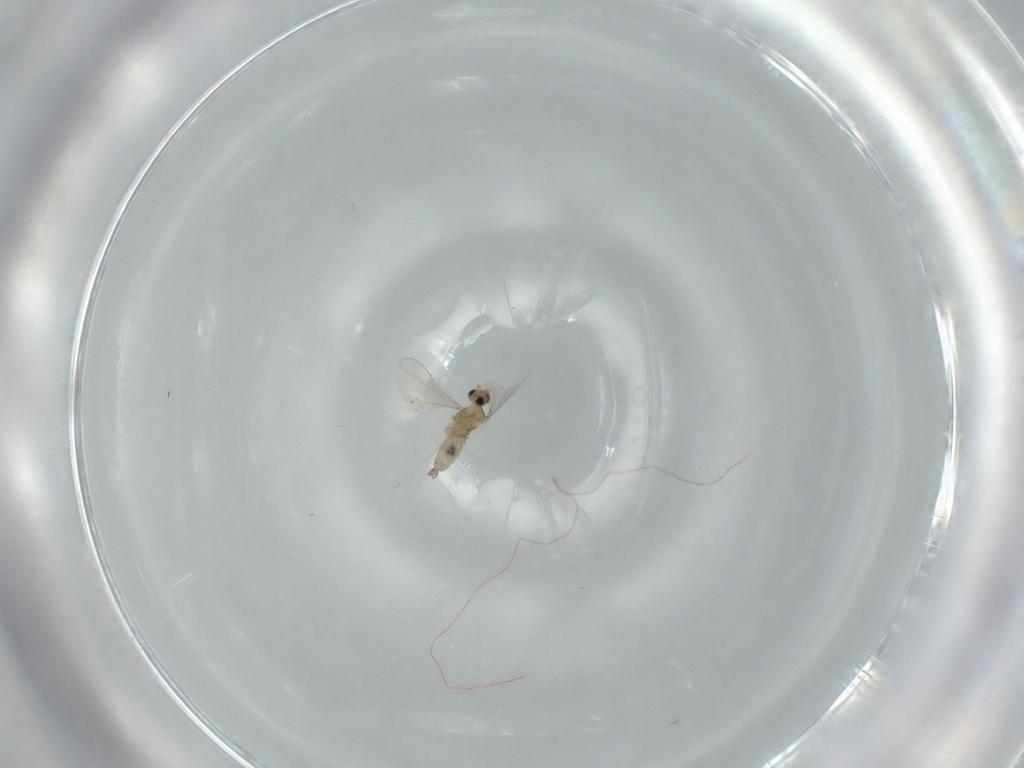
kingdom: Animalia
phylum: Arthropoda
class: Insecta
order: Diptera
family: Cecidomyiidae
